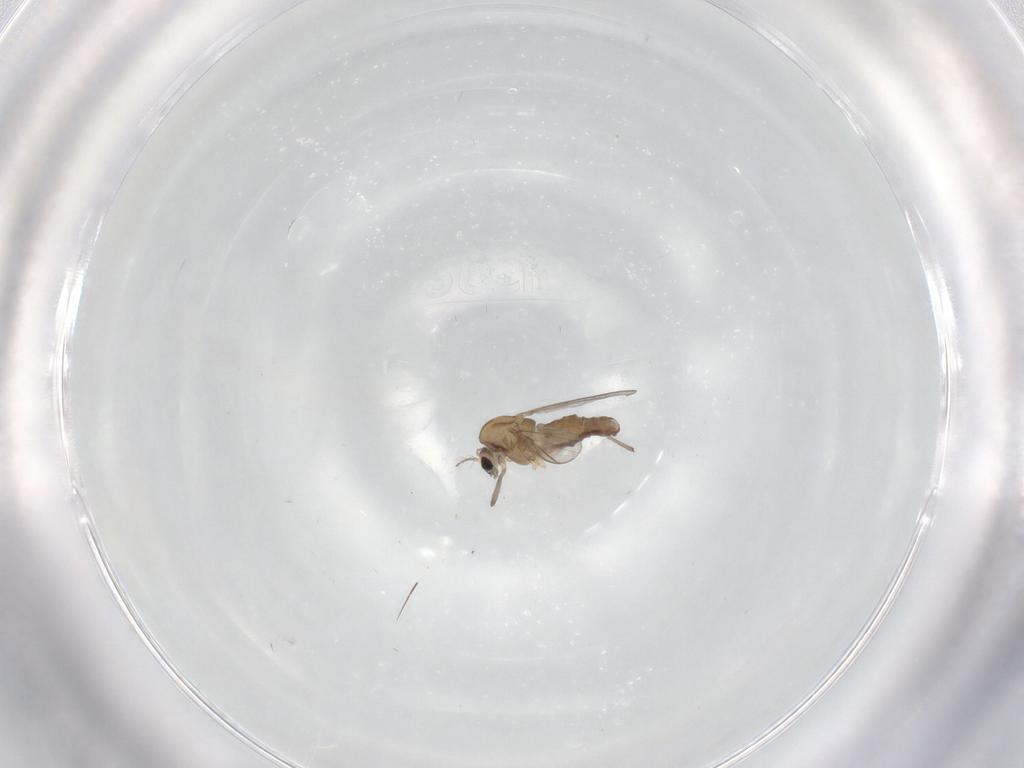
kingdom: Animalia
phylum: Arthropoda
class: Insecta
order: Diptera
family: Chironomidae
